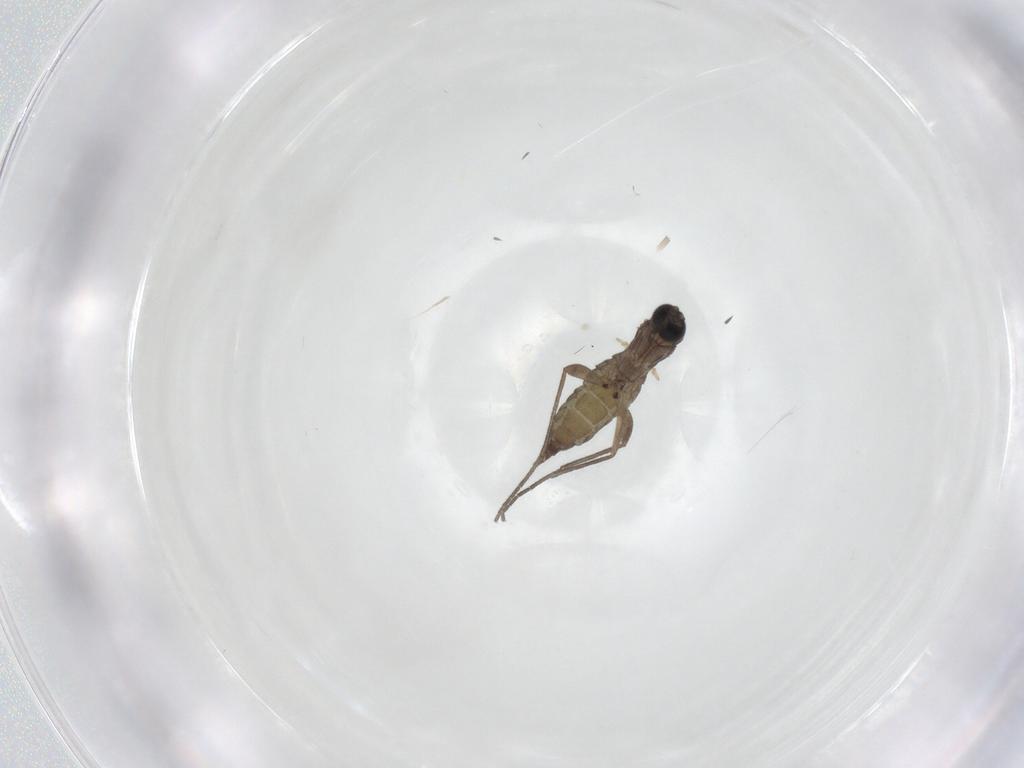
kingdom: Animalia
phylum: Arthropoda
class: Insecta
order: Diptera
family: Sciaridae
